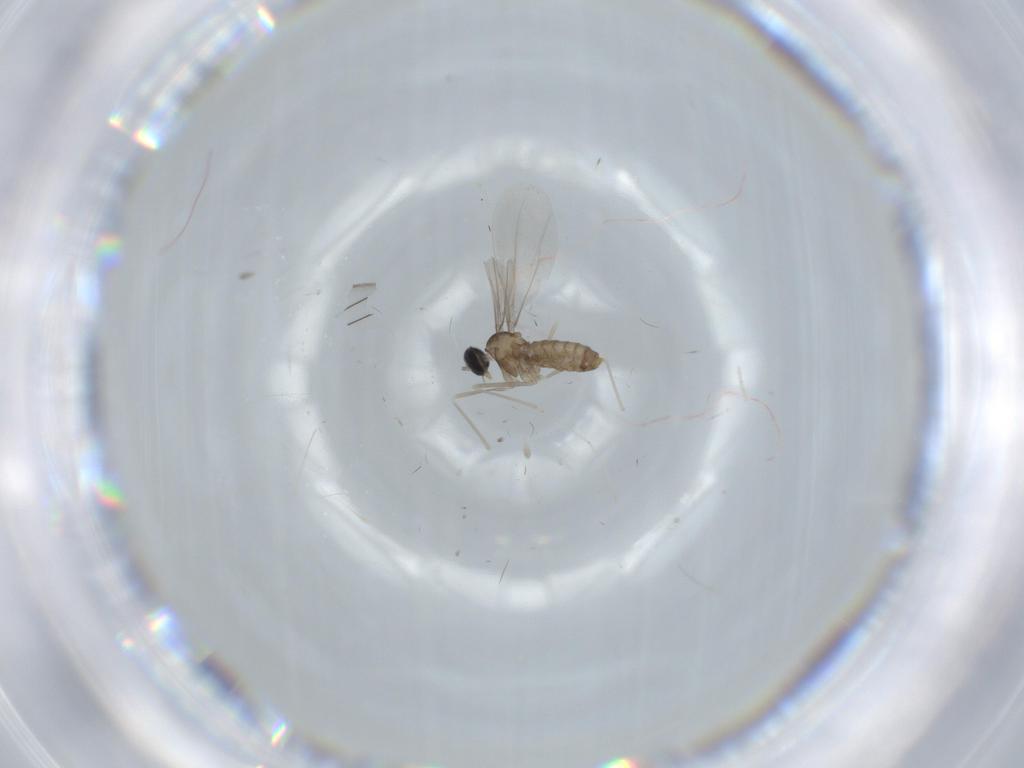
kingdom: Animalia
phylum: Arthropoda
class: Insecta
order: Diptera
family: Cecidomyiidae
